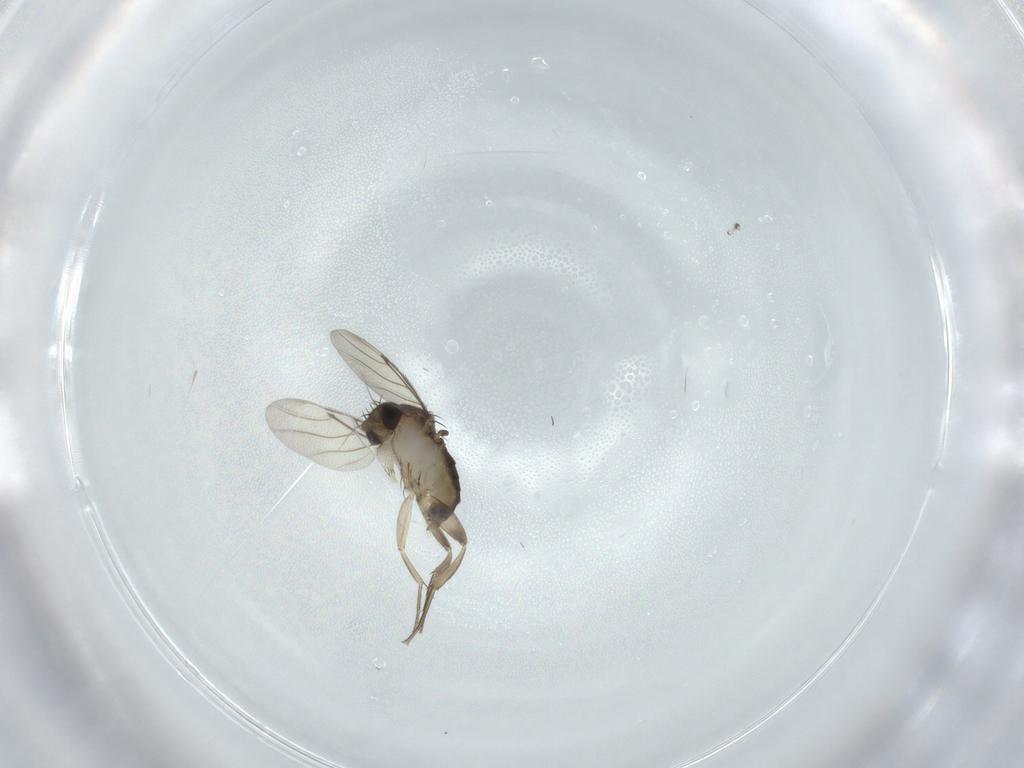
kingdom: Animalia
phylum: Arthropoda
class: Insecta
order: Diptera
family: Phoridae
